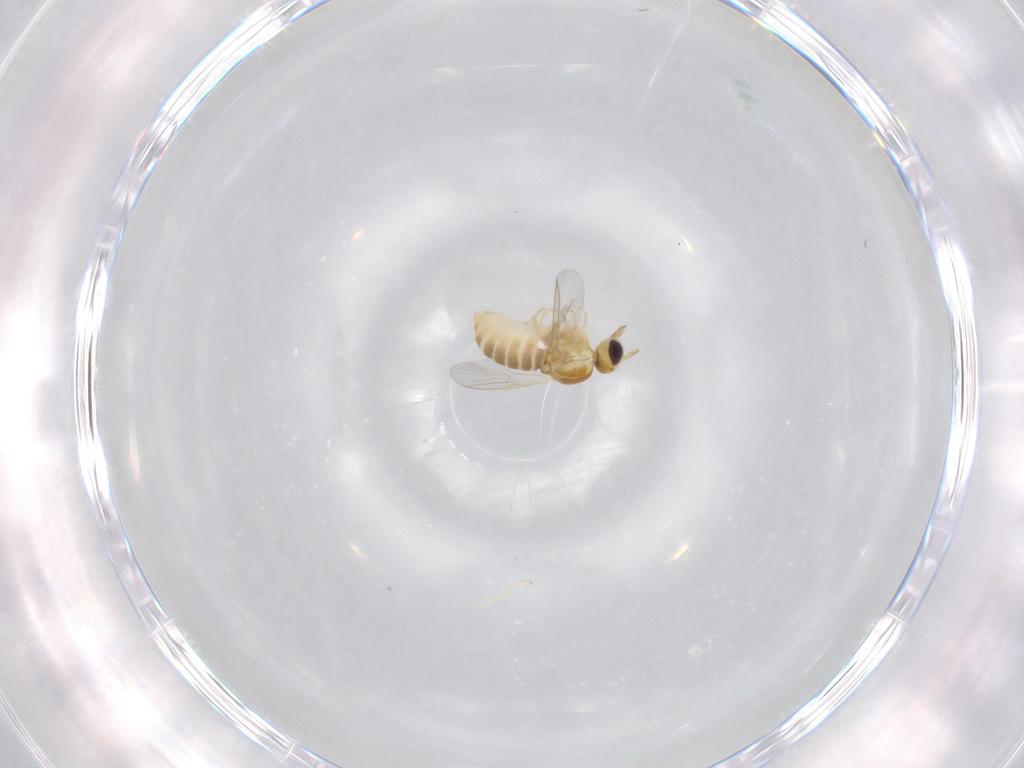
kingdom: Animalia
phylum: Arthropoda
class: Insecta
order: Diptera
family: Mythicomyiidae
